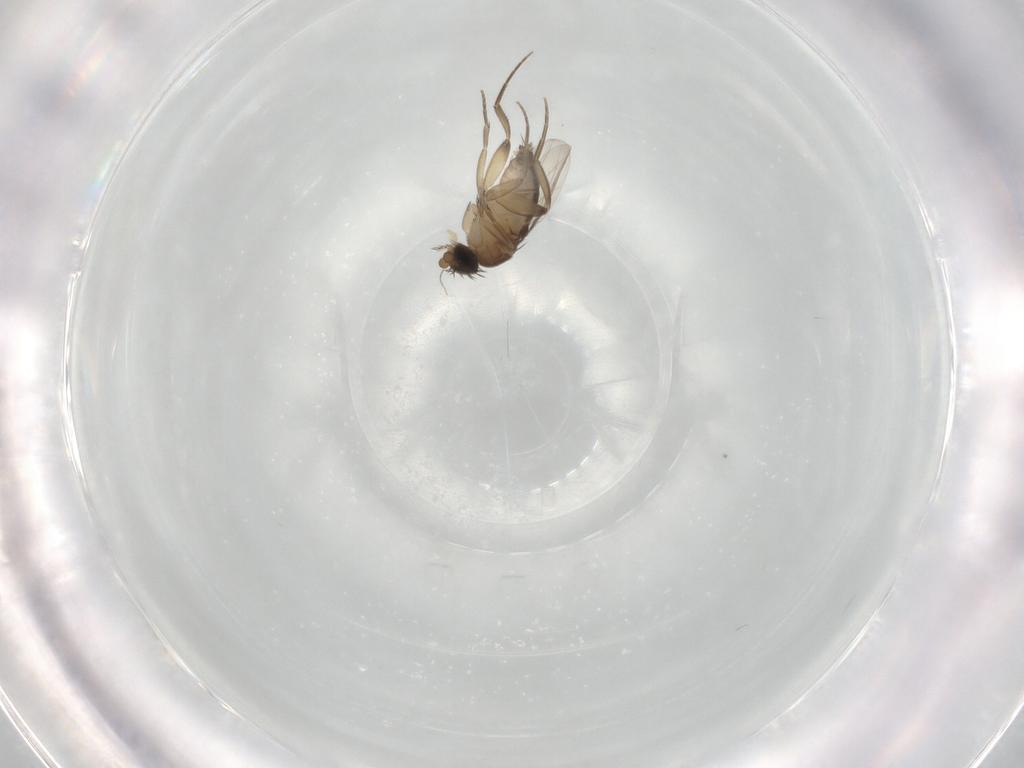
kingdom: Animalia
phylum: Arthropoda
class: Insecta
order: Diptera
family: Phoridae
